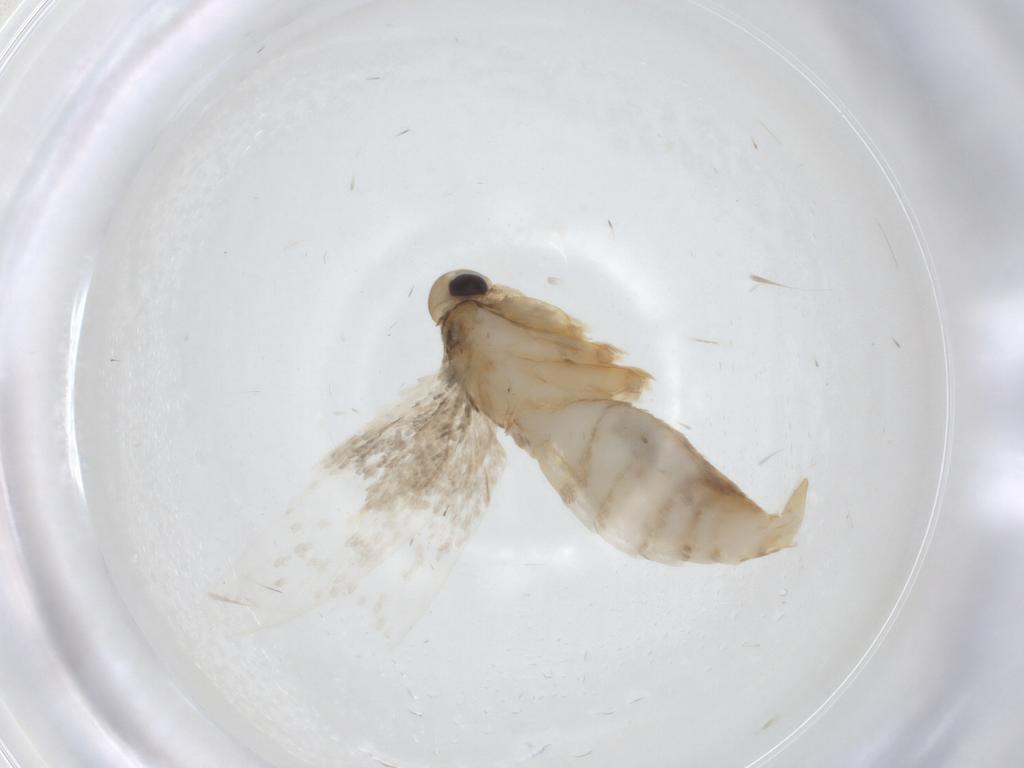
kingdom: Animalia
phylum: Arthropoda
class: Insecta
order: Lepidoptera
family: Autostichidae
